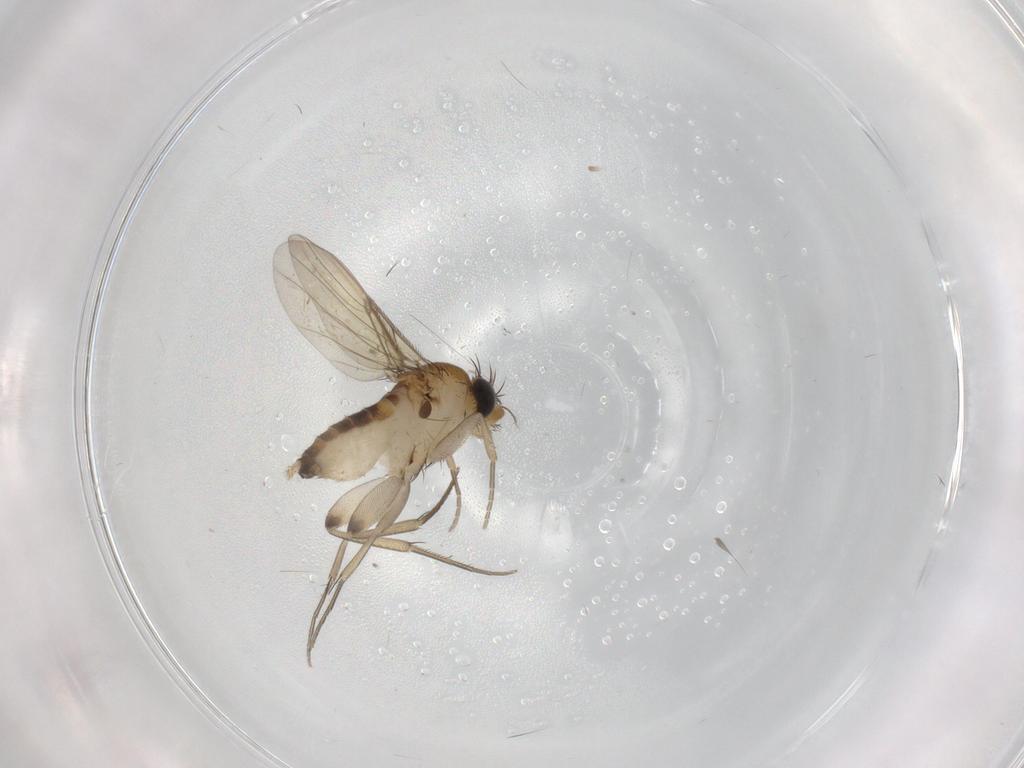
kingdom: Animalia
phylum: Arthropoda
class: Insecta
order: Diptera
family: Phoridae
